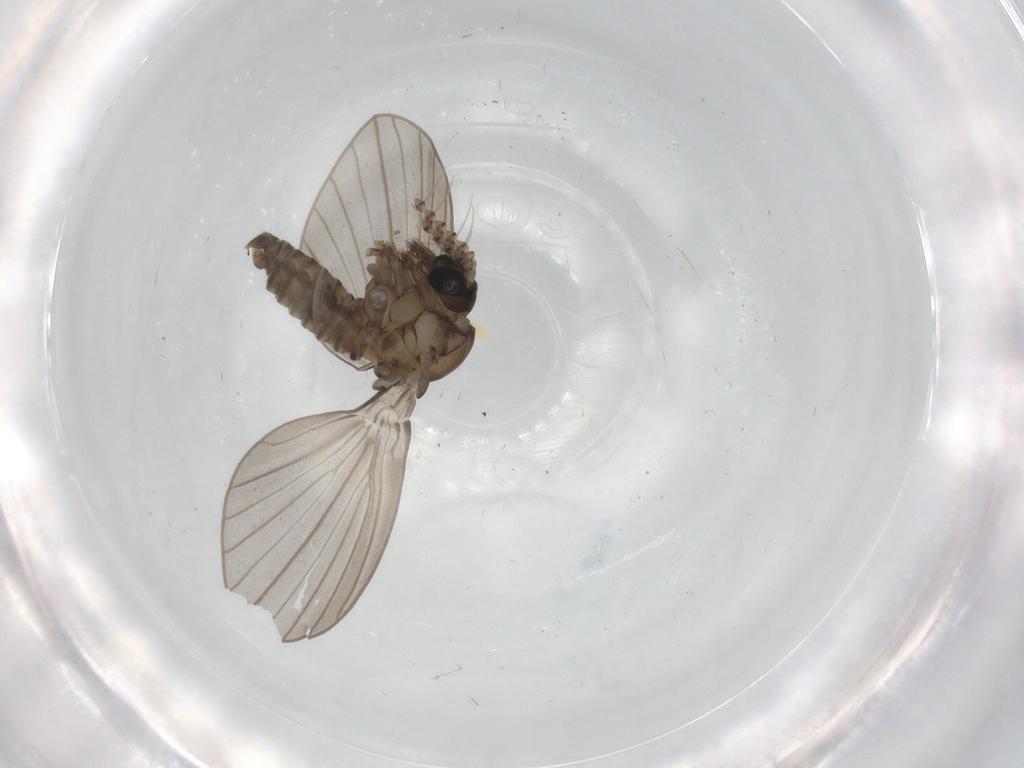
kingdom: Animalia
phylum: Arthropoda
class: Insecta
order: Diptera
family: Psychodidae
